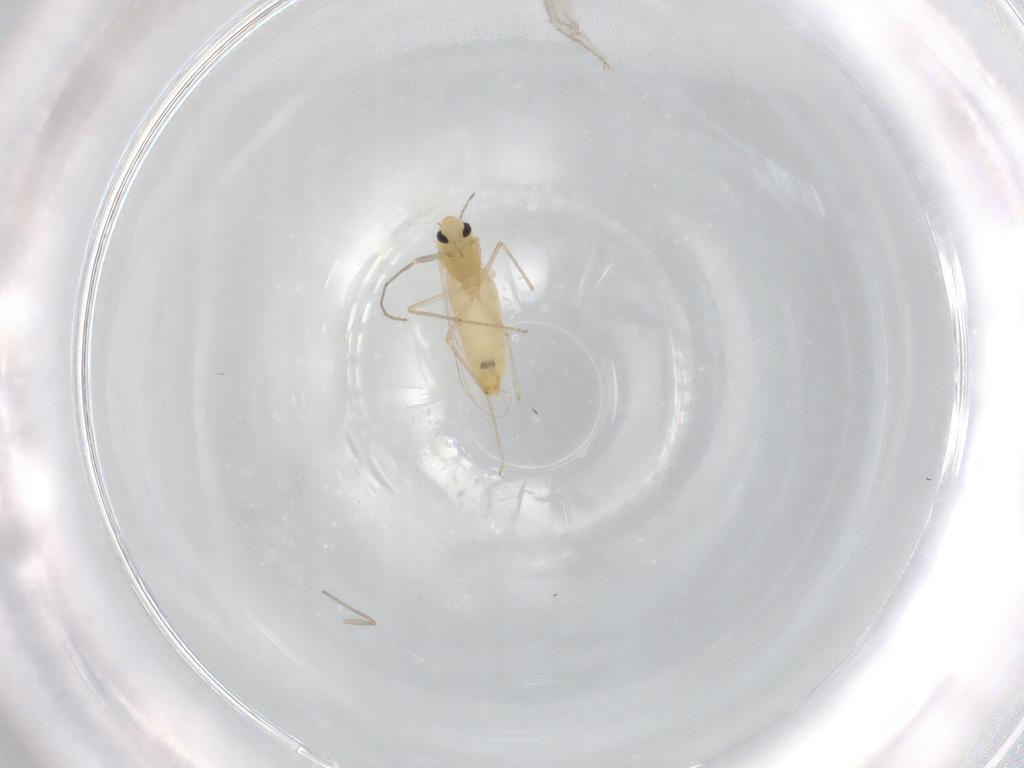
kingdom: Animalia
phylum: Arthropoda
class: Insecta
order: Diptera
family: Chironomidae
